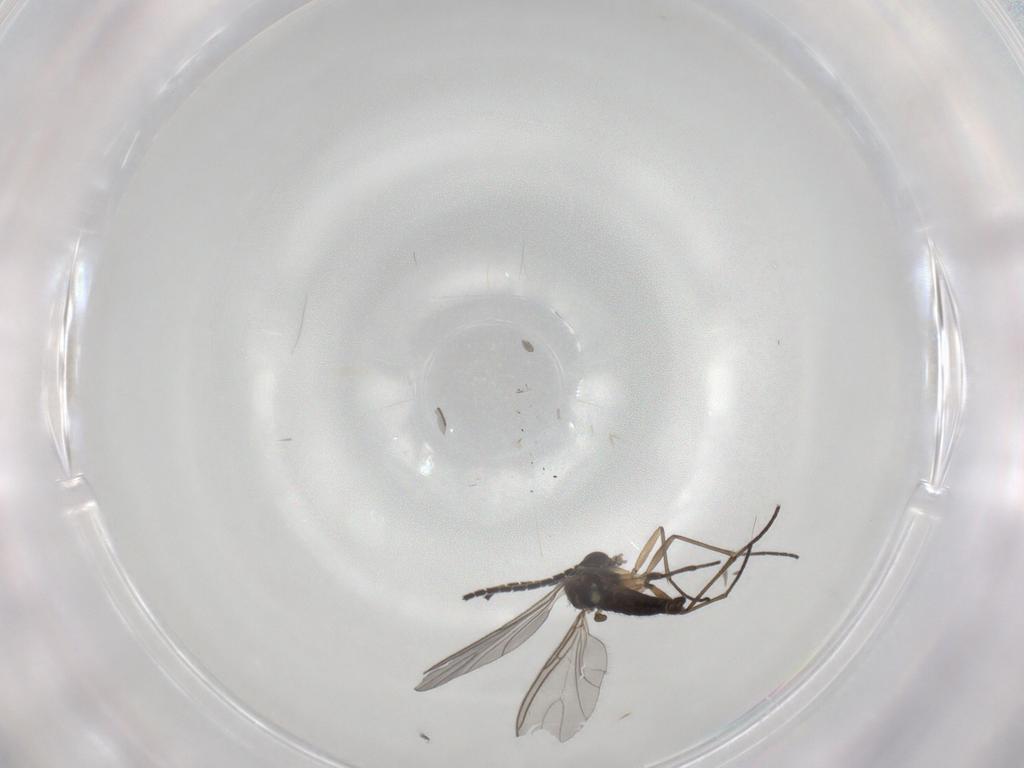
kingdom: Animalia
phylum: Arthropoda
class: Insecta
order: Diptera
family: Sciaridae
